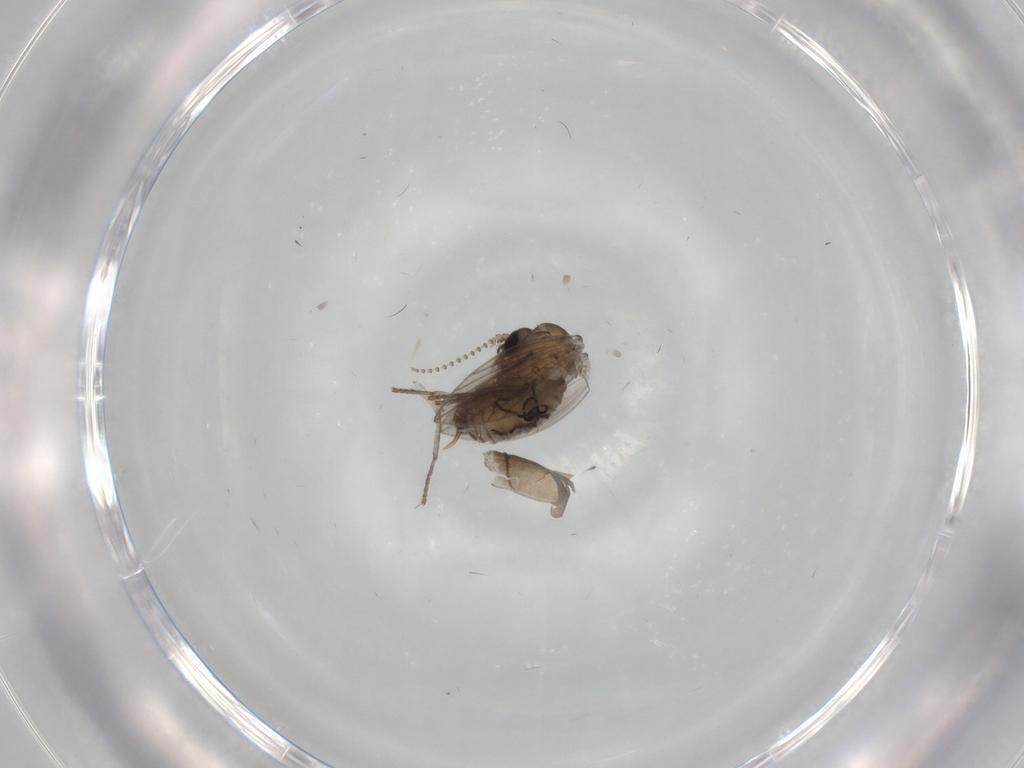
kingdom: Animalia
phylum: Arthropoda
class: Insecta
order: Diptera
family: Psychodidae
